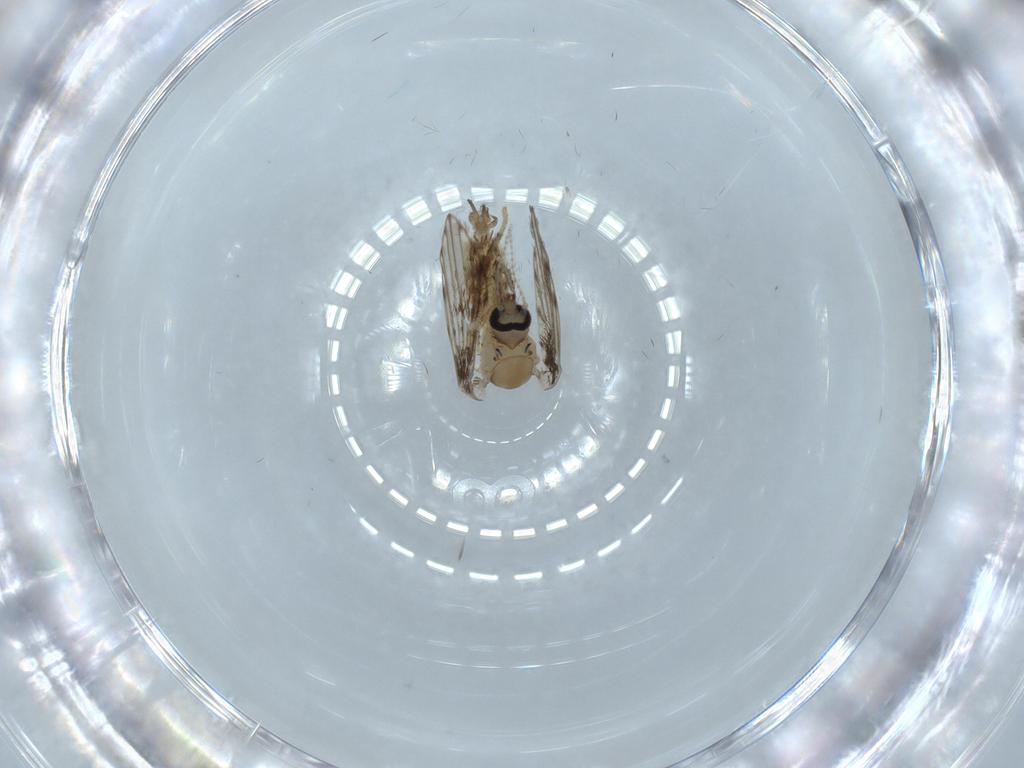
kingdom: Animalia
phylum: Arthropoda
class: Insecta
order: Diptera
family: Psychodidae
